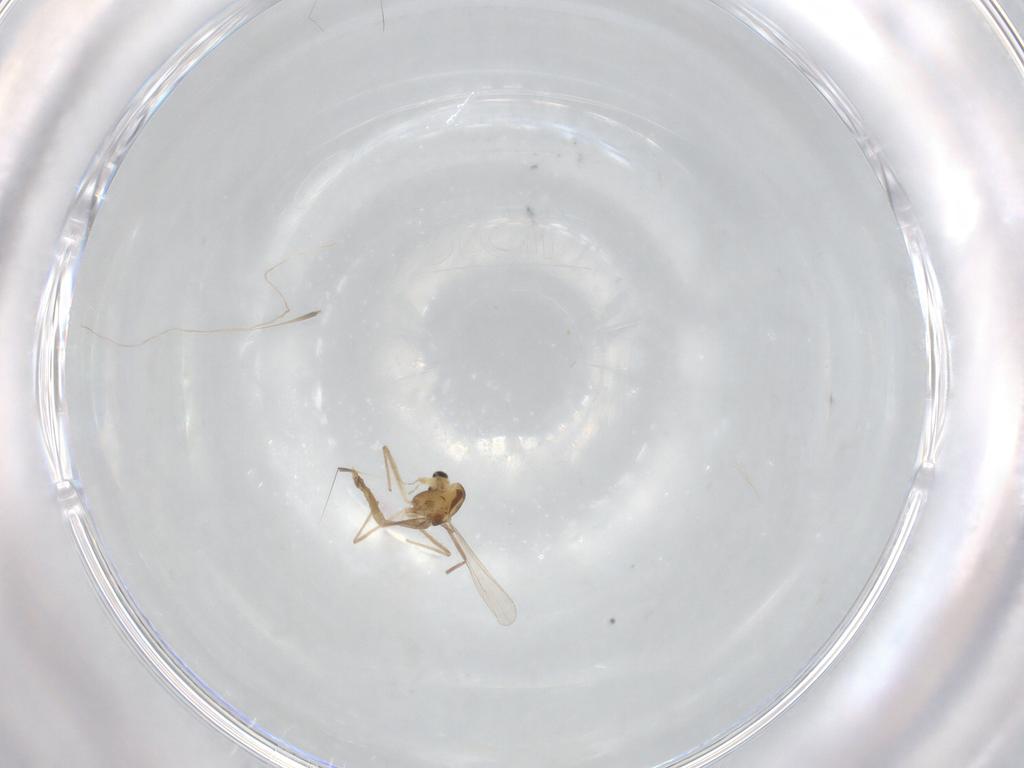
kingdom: Animalia
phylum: Arthropoda
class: Insecta
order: Diptera
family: Chironomidae
